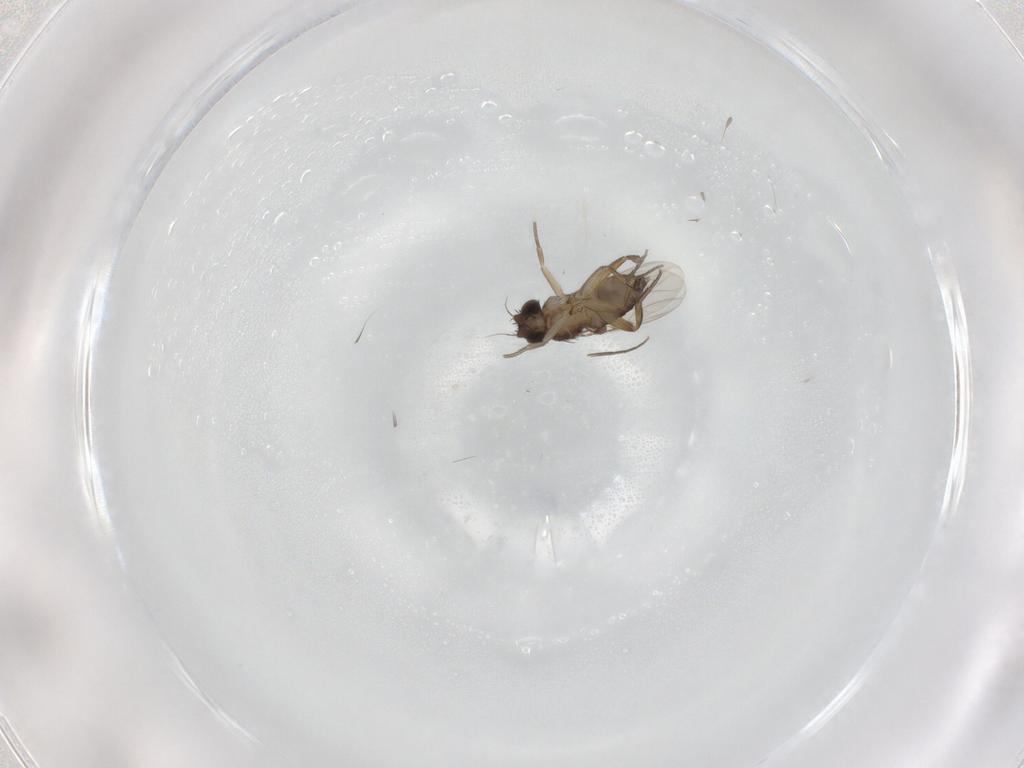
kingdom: Animalia
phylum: Arthropoda
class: Insecta
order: Diptera
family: Phoridae
